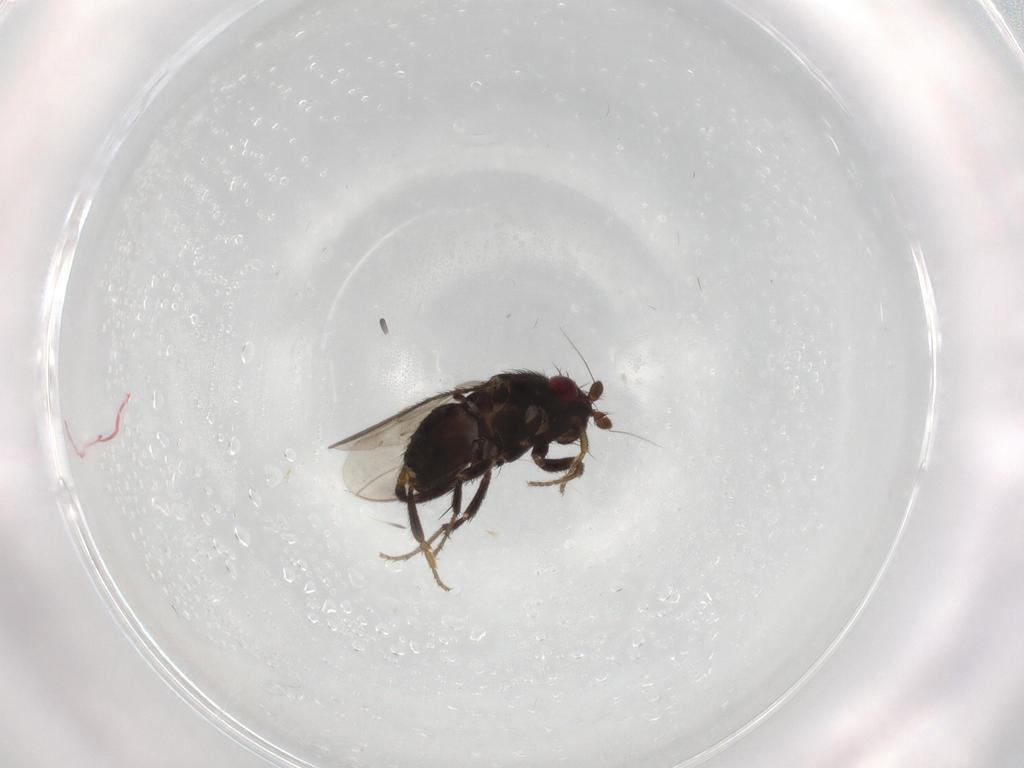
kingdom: Animalia
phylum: Arthropoda
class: Insecta
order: Diptera
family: Sphaeroceridae
